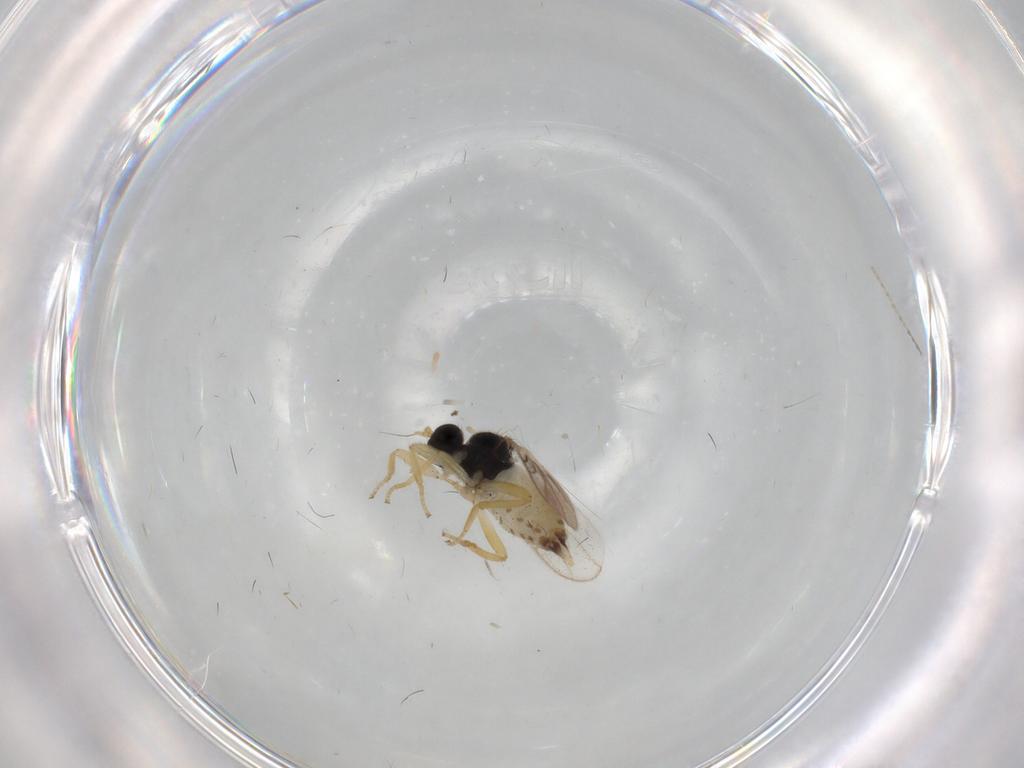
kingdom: Animalia
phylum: Arthropoda
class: Insecta
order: Diptera
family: Hybotidae
